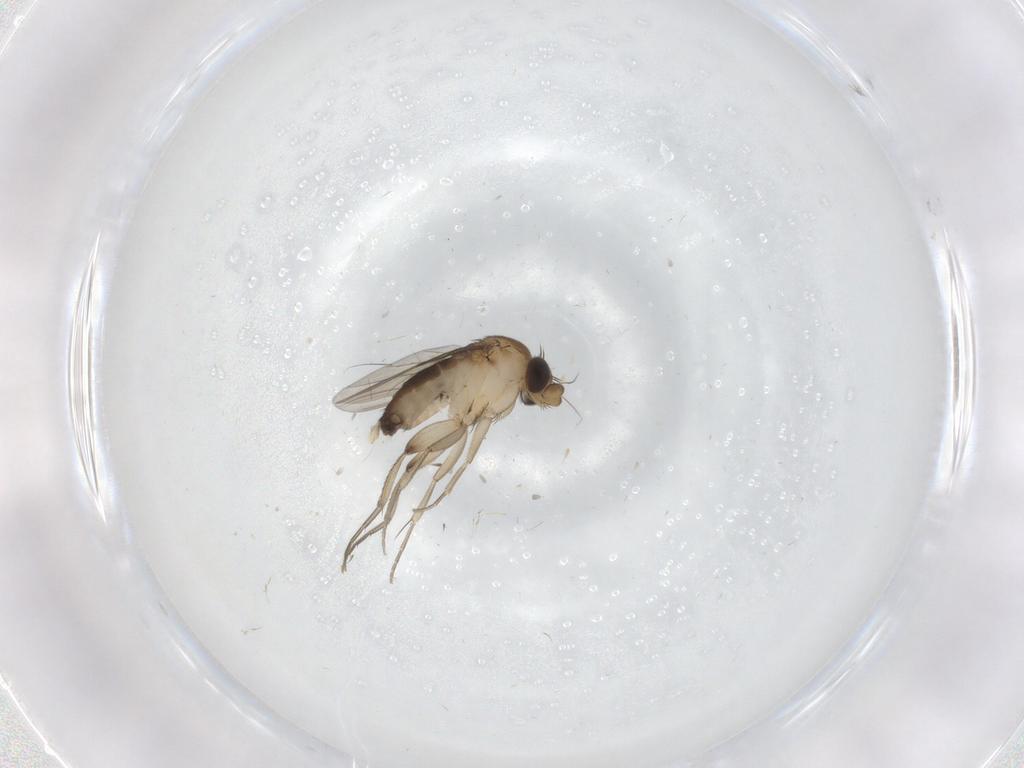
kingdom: Animalia
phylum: Arthropoda
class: Insecta
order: Diptera
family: Phoridae
